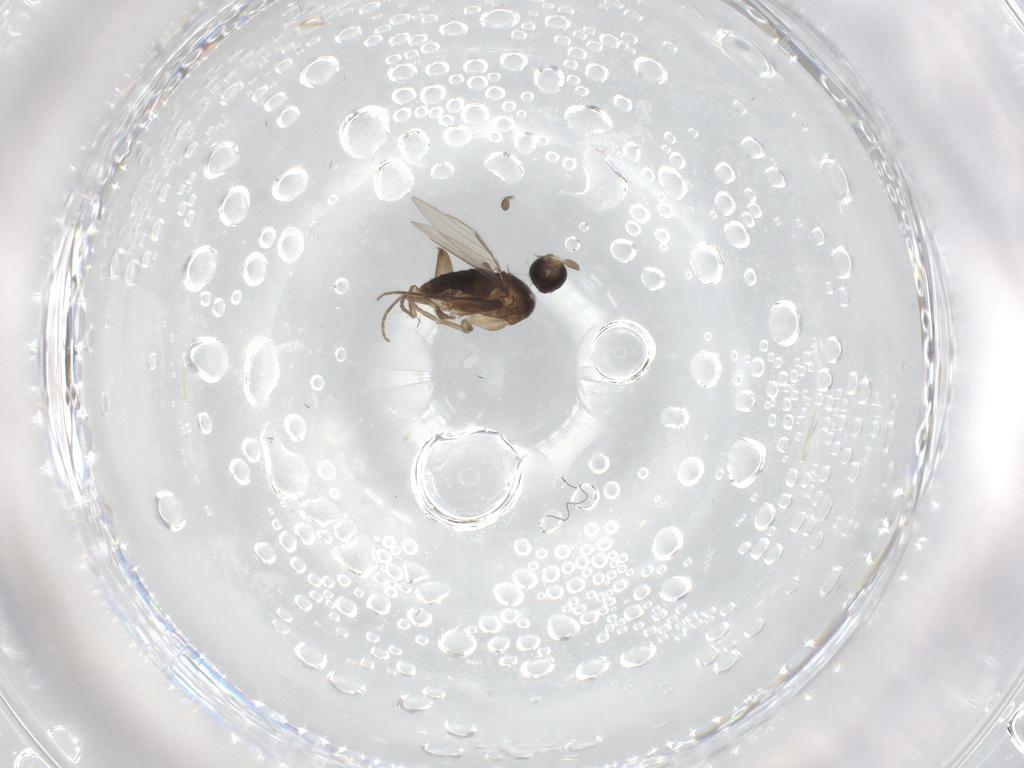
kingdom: Animalia
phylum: Arthropoda
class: Insecta
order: Diptera
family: Phoridae
